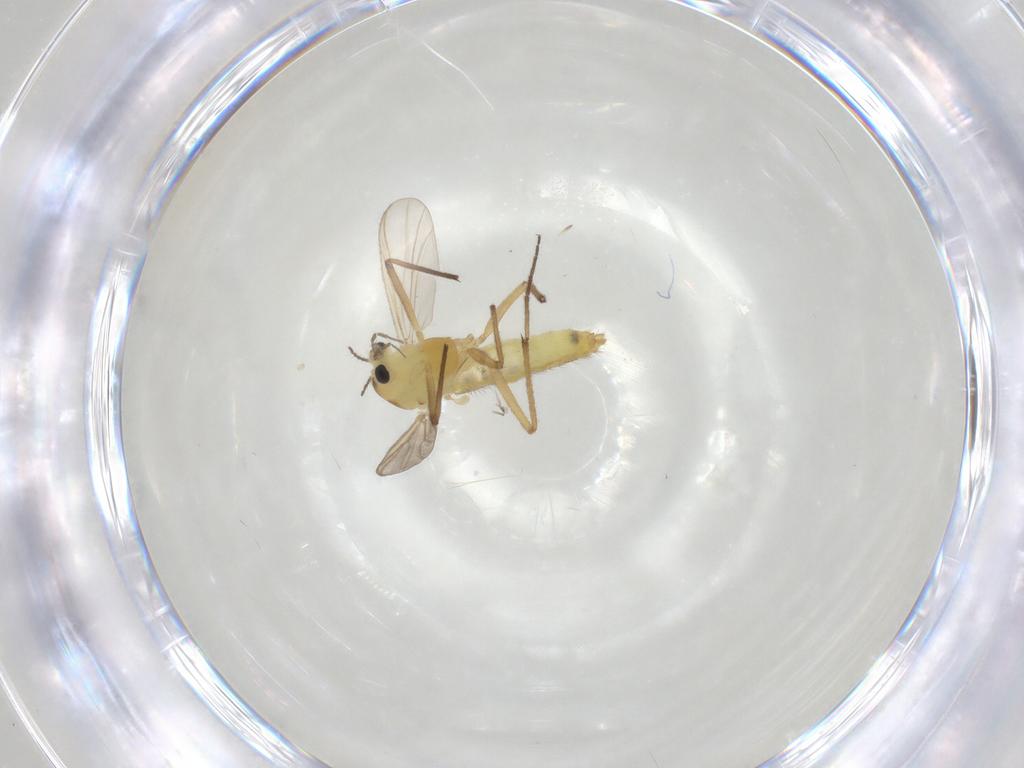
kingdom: Animalia
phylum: Arthropoda
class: Insecta
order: Diptera
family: Chironomidae
